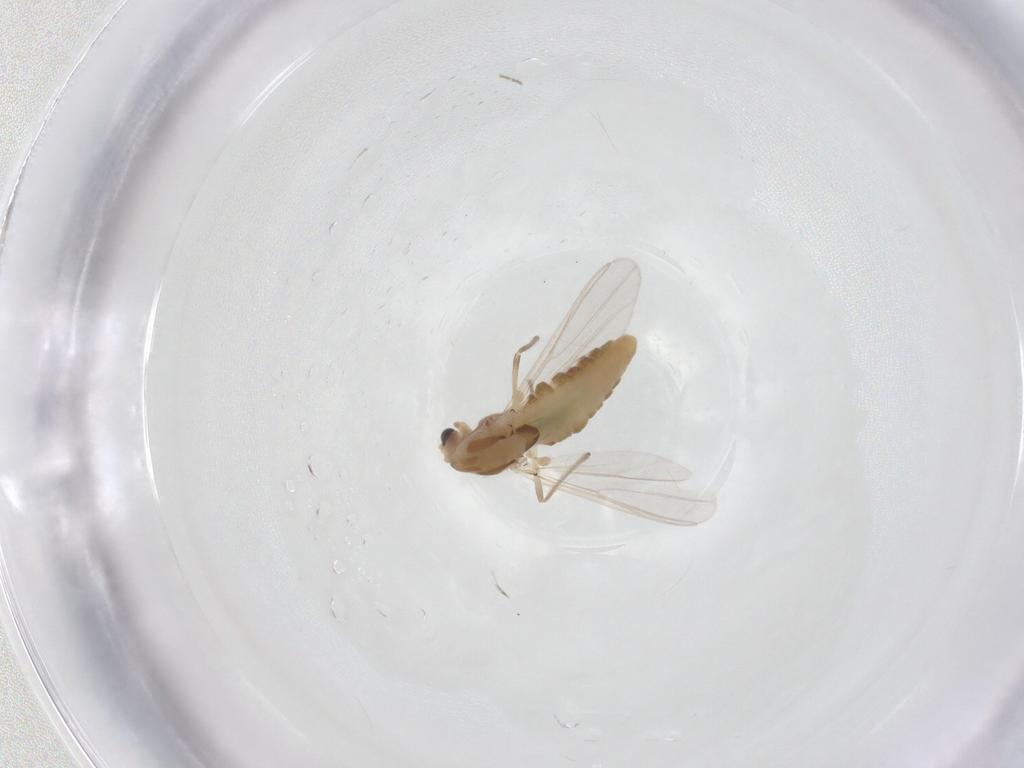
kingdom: Animalia
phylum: Arthropoda
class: Insecta
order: Diptera
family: Chironomidae
